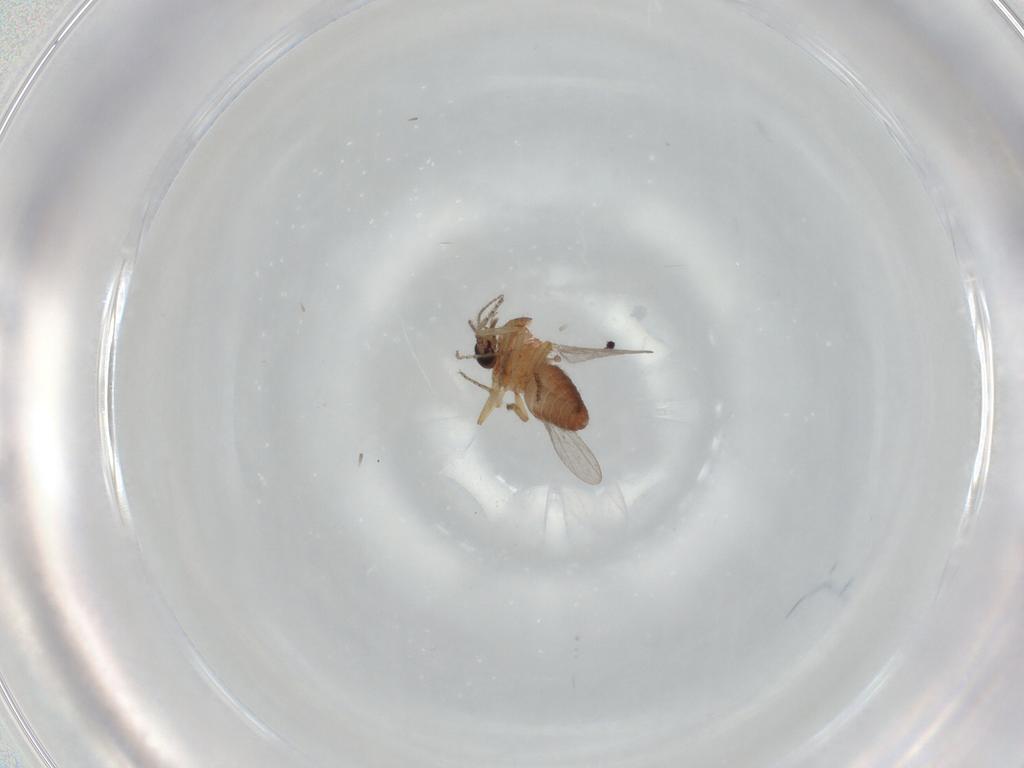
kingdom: Animalia
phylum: Arthropoda
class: Insecta
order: Diptera
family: Ceratopogonidae
